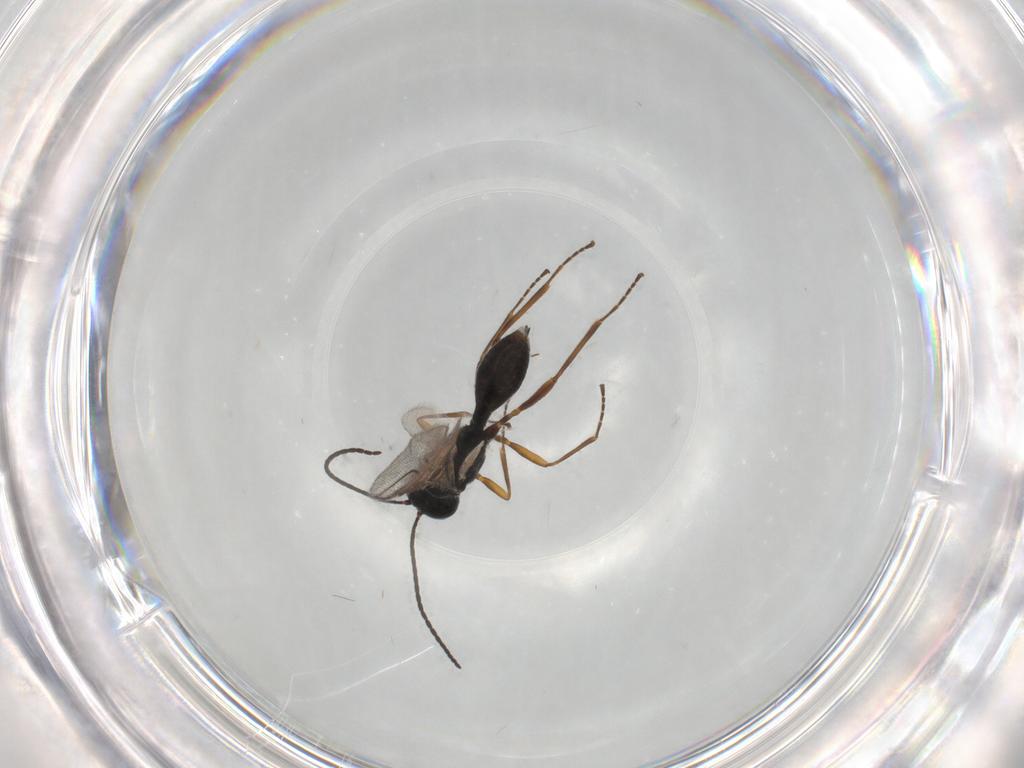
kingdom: Animalia
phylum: Arthropoda
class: Insecta
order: Hymenoptera
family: Braconidae
